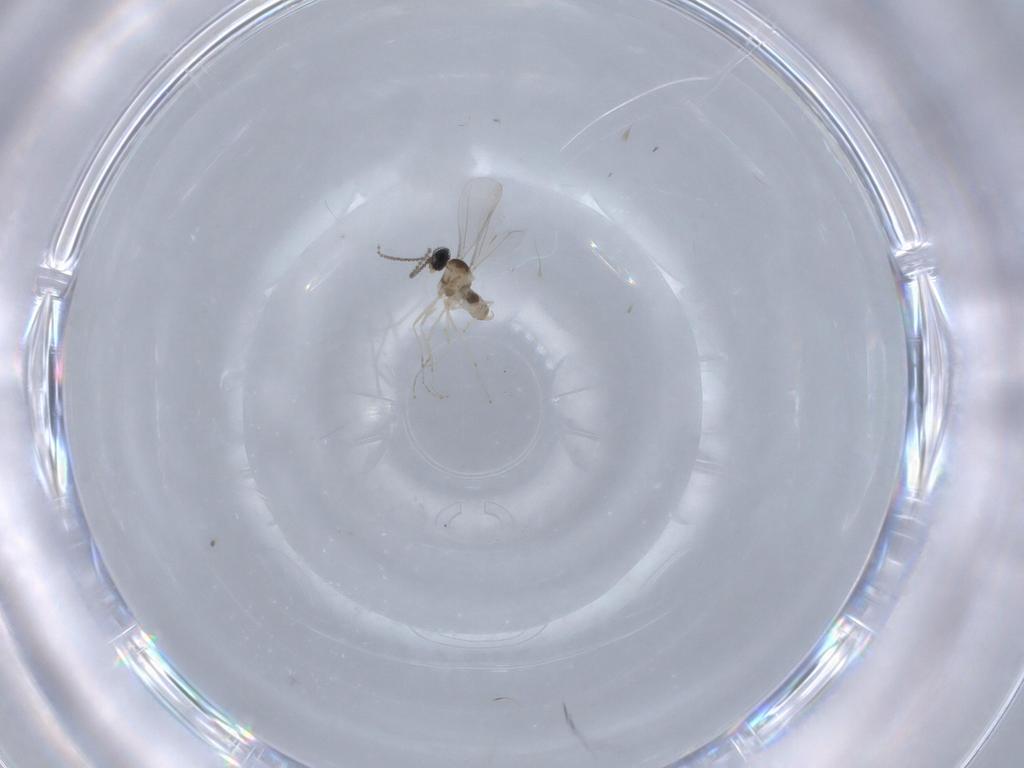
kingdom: Animalia
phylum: Arthropoda
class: Insecta
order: Diptera
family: Cecidomyiidae
